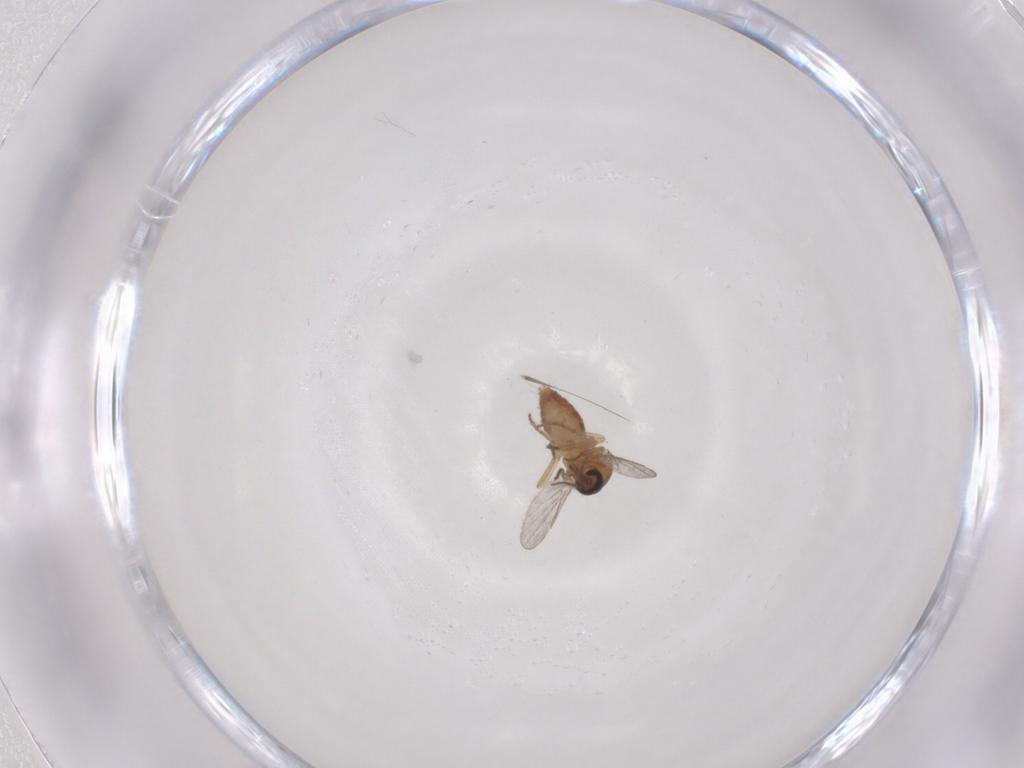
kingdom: Animalia
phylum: Arthropoda
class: Insecta
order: Diptera
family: Ceratopogonidae
